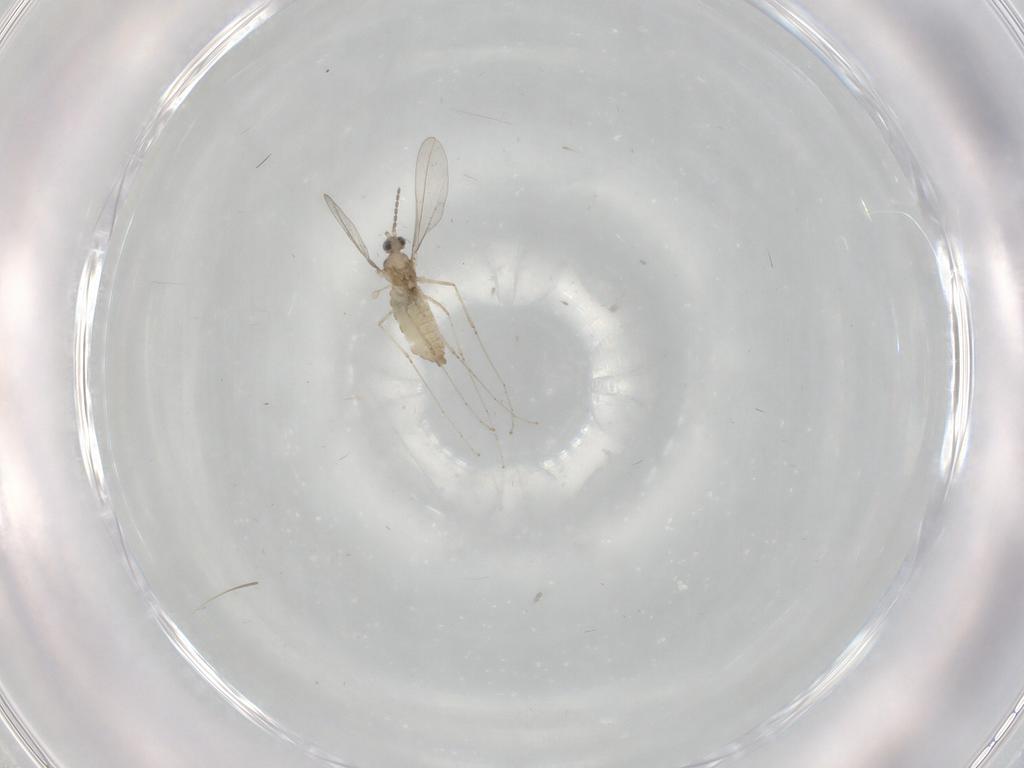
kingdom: Animalia
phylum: Arthropoda
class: Insecta
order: Diptera
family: Cecidomyiidae
